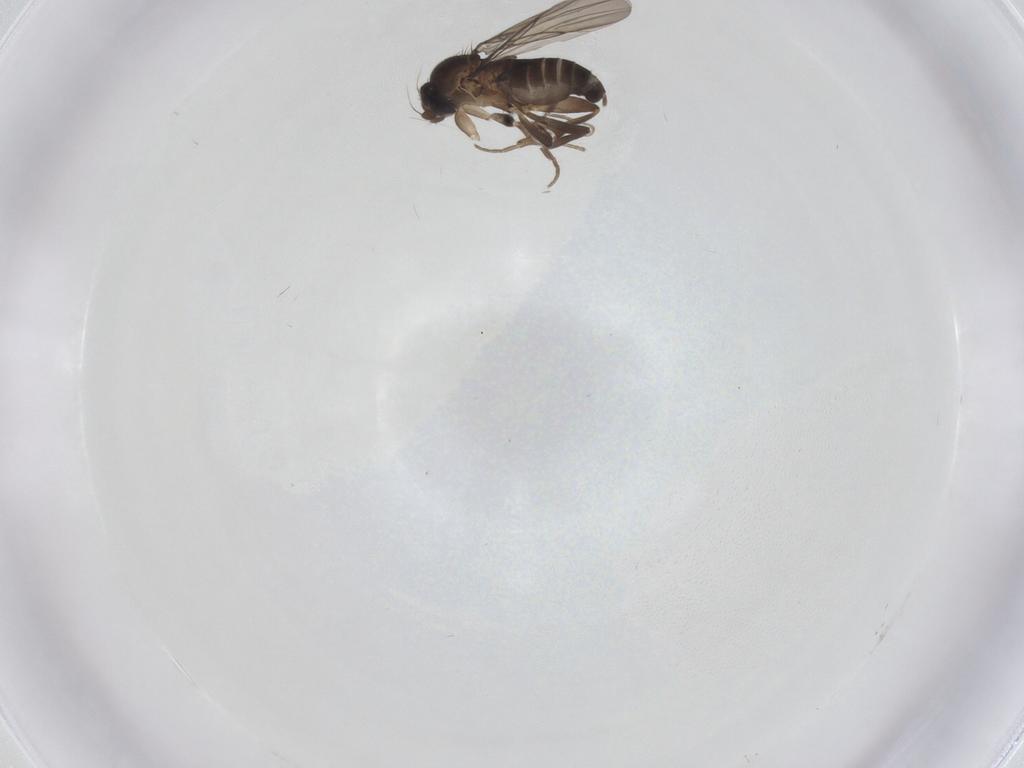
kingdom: Animalia
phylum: Arthropoda
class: Insecta
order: Diptera
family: Phoridae
